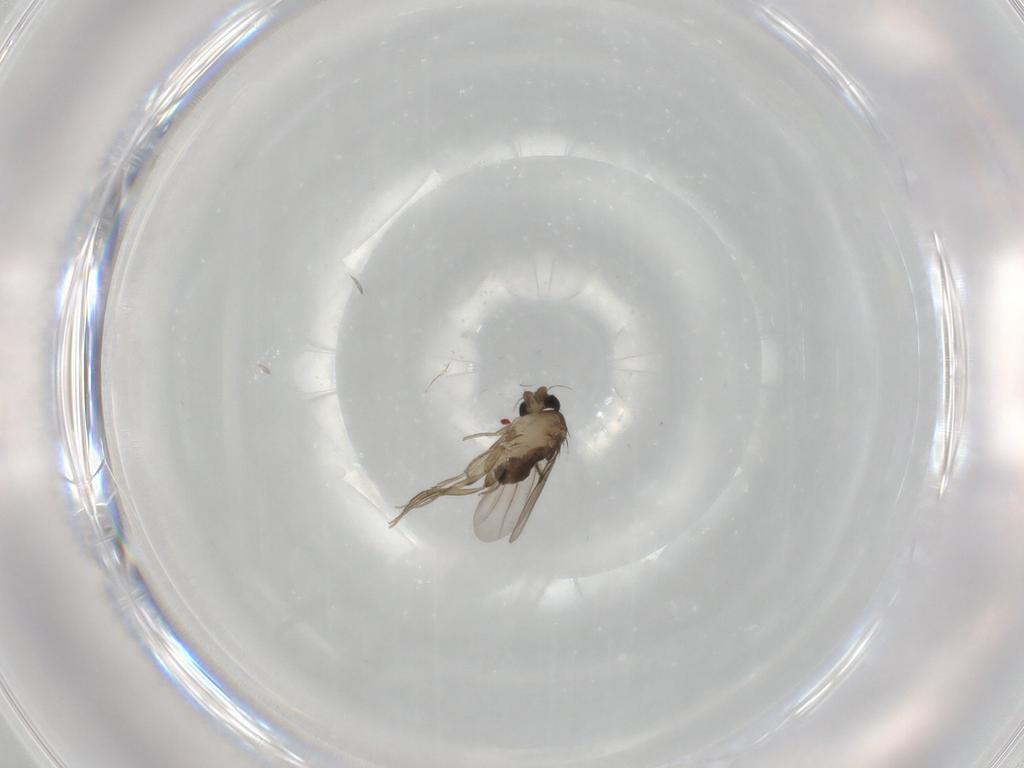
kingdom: Animalia
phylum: Arthropoda
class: Insecta
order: Diptera
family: Phoridae
